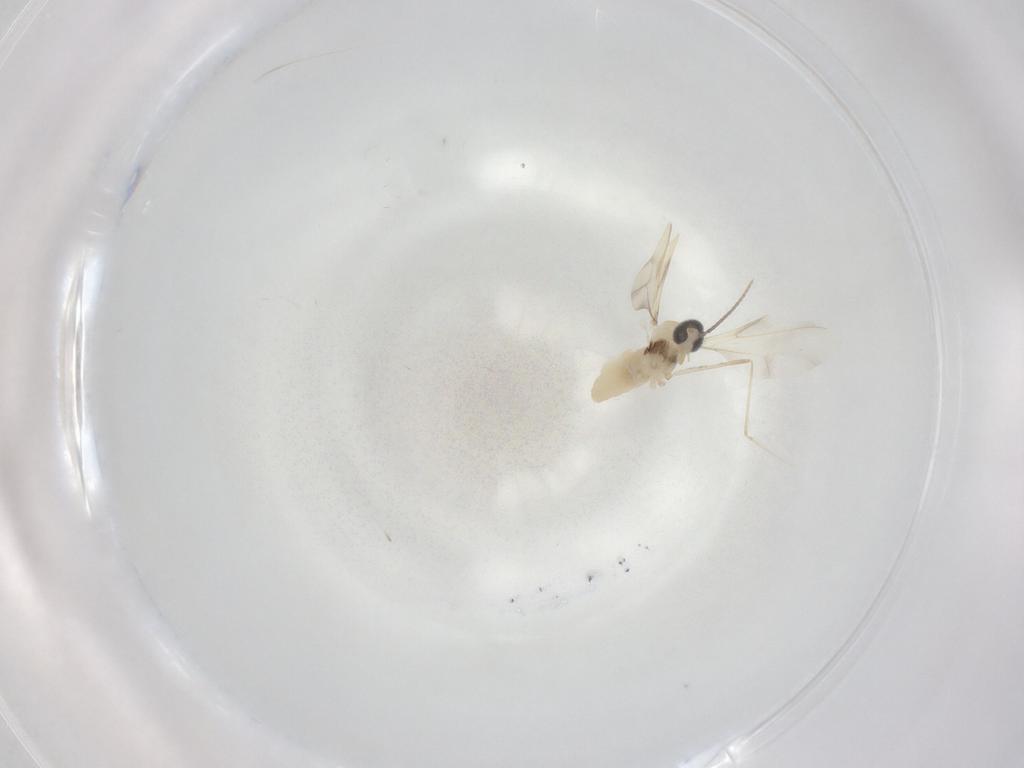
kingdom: Animalia
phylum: Arthropoda
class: Insecta
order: Diptera
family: Cecidomyiidae
